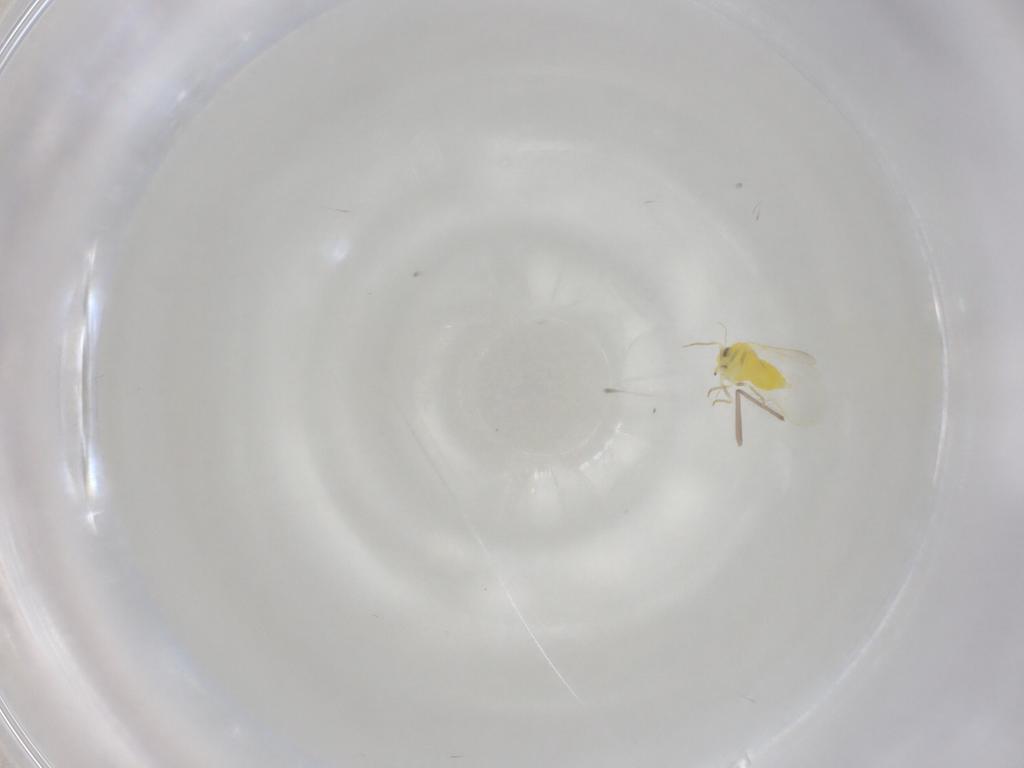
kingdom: Animalia
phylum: Arthropoda
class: Insecta
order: Hemiptera
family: Aleyrodidae
